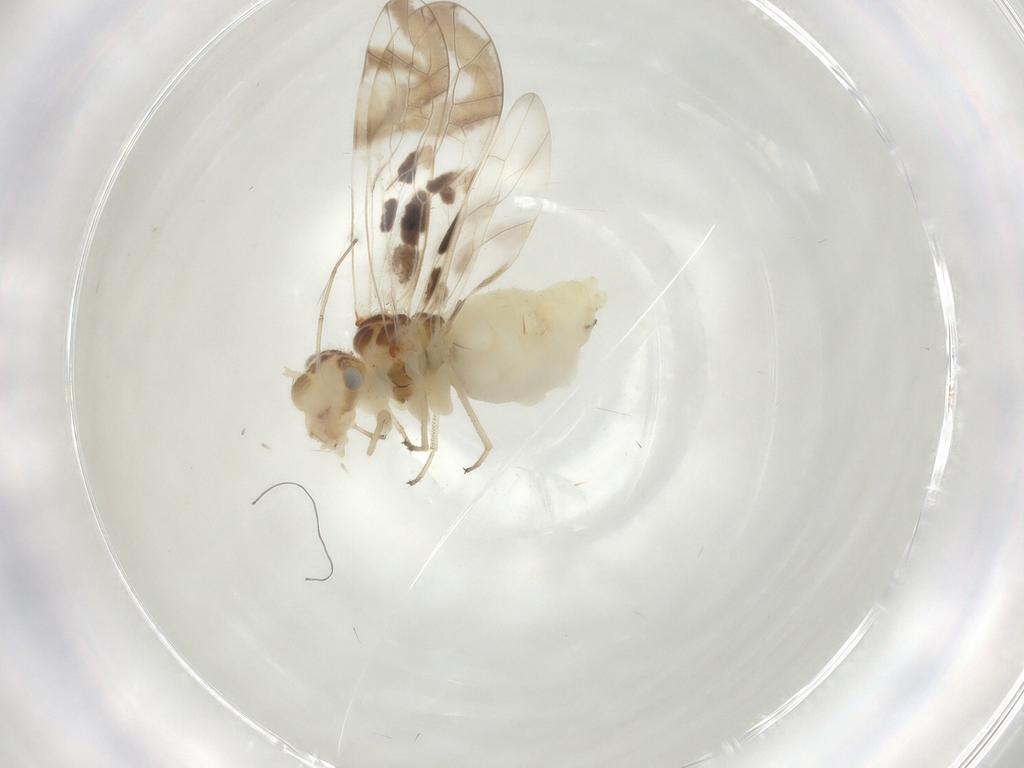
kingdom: Animalia
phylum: Arthropoda
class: Insecta
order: Psocodea
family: Stenopsocidae
